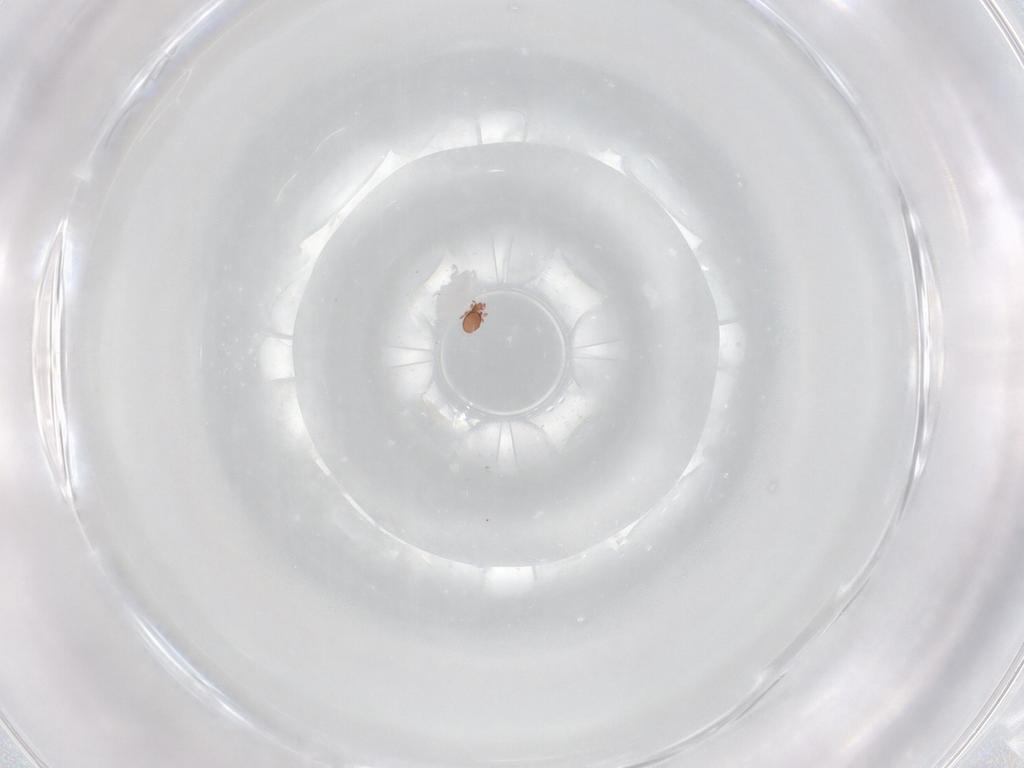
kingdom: Animalia
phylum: Arthropoda
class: Arachnida
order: Sarcoptiformes
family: Oppiidae
